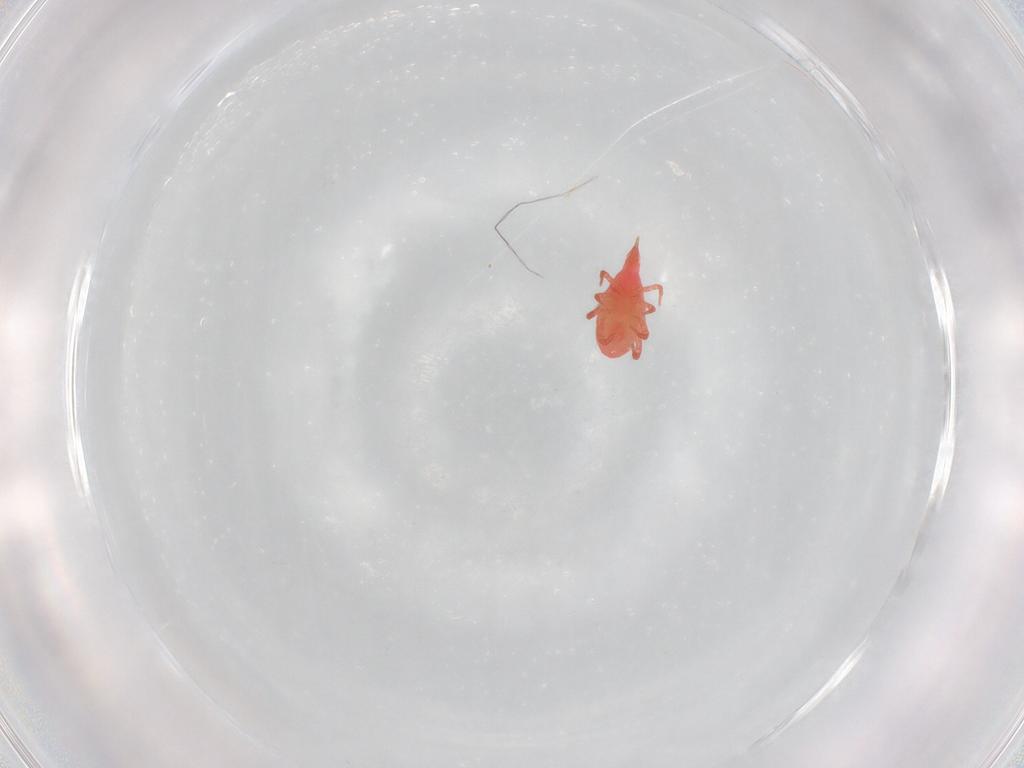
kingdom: Animalia
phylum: Arthropoda
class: Arachnida
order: Trombidiformes
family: Bdellidae
